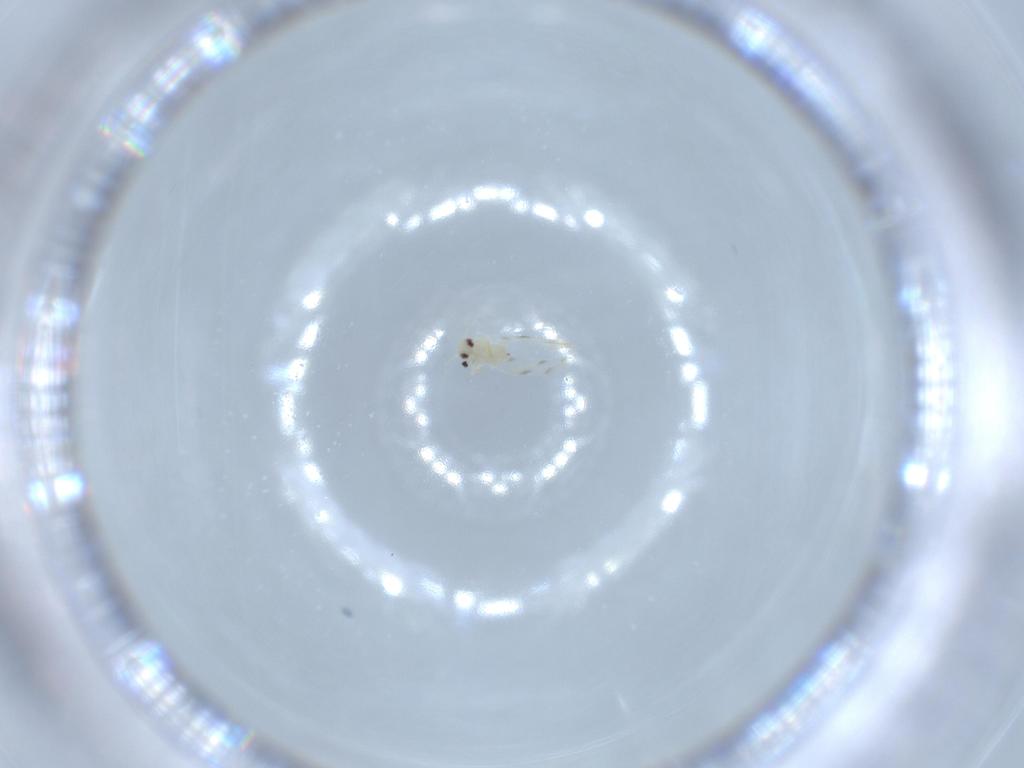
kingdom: Animalia
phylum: Arthropoda
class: Insecta
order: Hemiptera
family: Aleyrodidae
